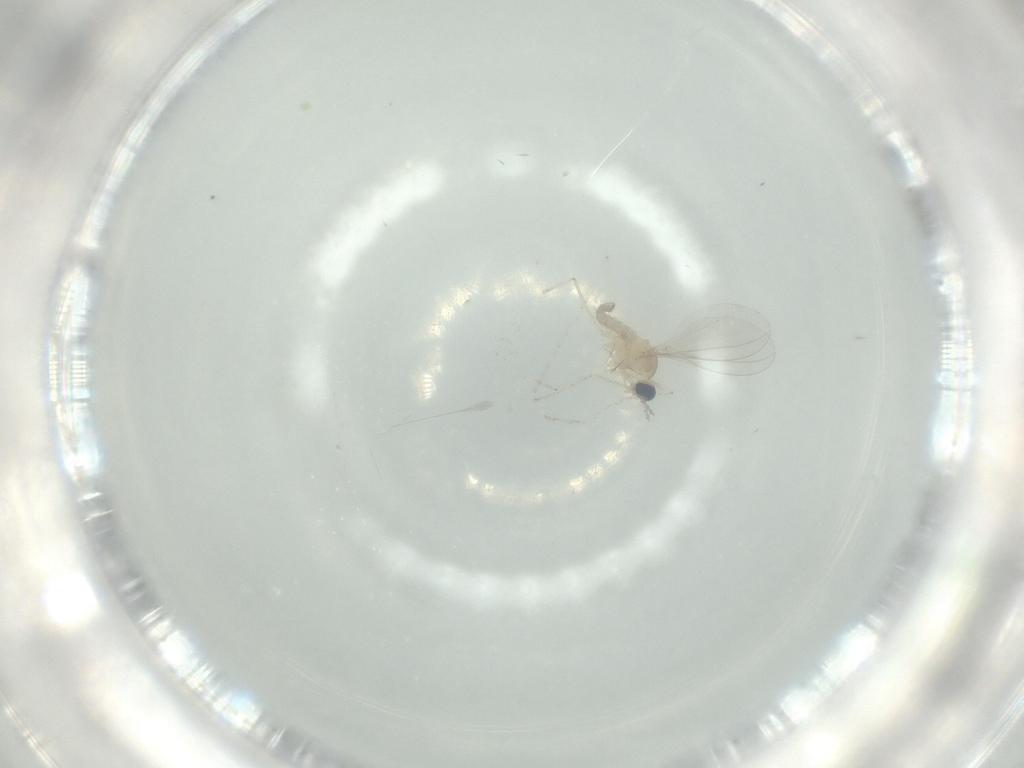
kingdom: Animalia
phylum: Arthropoda
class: Insecta
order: Diptera
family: Cecidomyiidae
